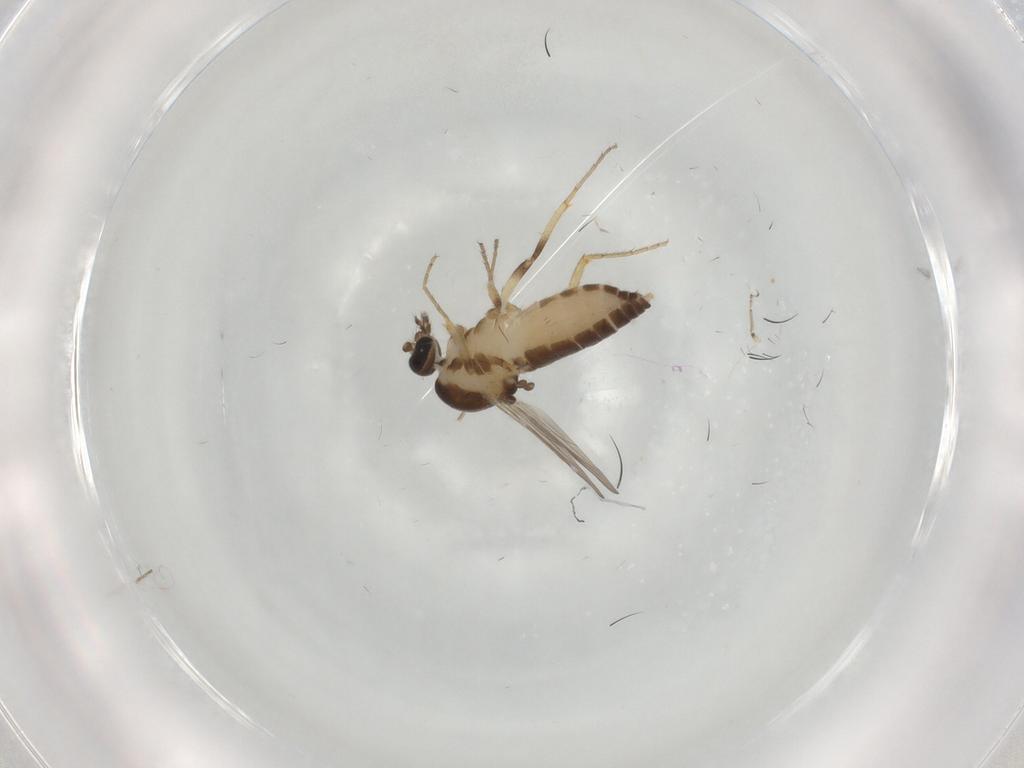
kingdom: Animalia
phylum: Arthropoda
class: Insecta
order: Diptera
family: Ceratopogonidae
